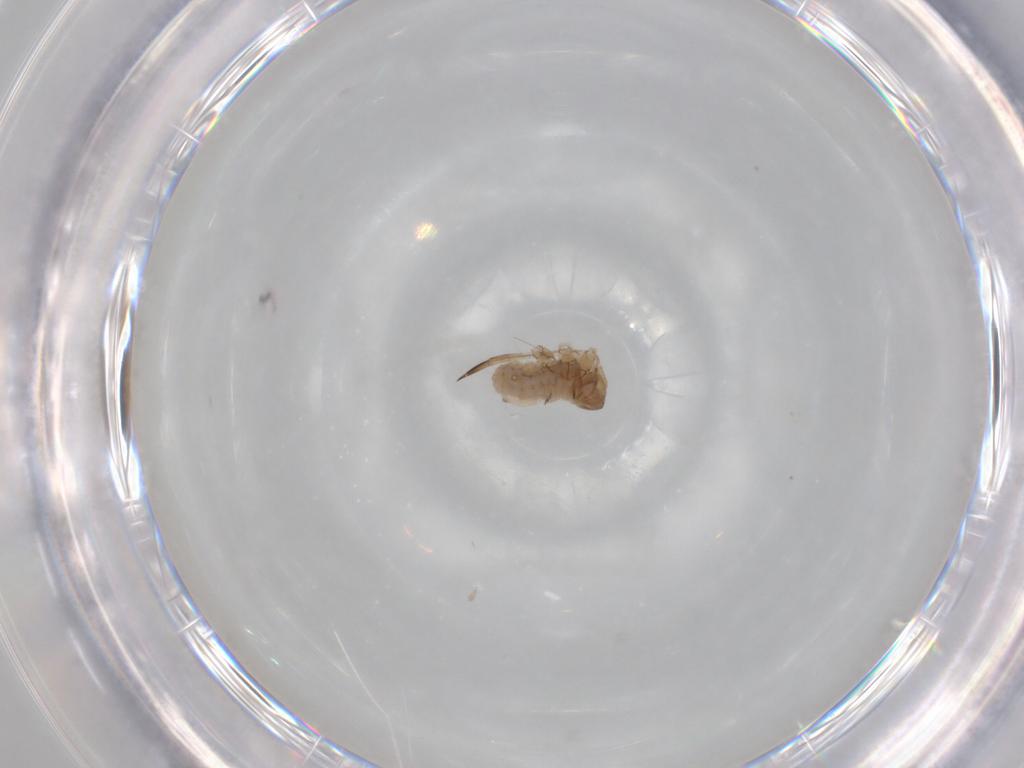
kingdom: Animalia
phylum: Arthropoda
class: Insecta
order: Hemiptera
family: Aphididae
